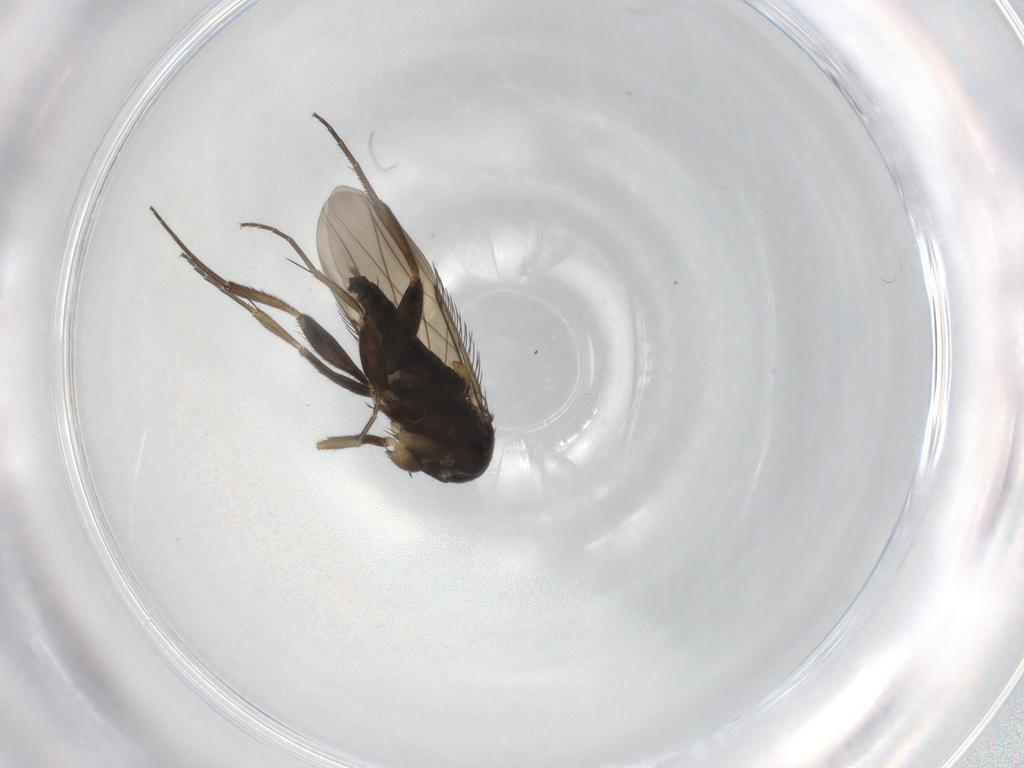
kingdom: Animalia
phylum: Arthropoda
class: Insecta
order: Diptera
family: Phoridae
